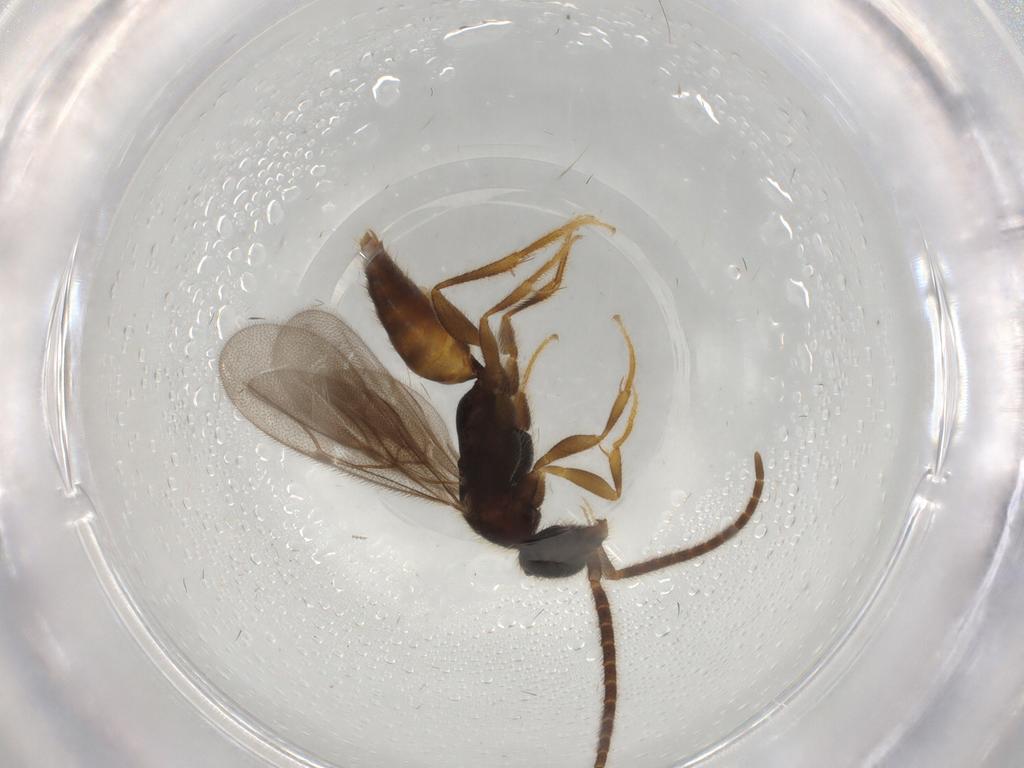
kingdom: Animalia
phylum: Arthropoda
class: Insecta
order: Hymenoptera
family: Bethylidae
